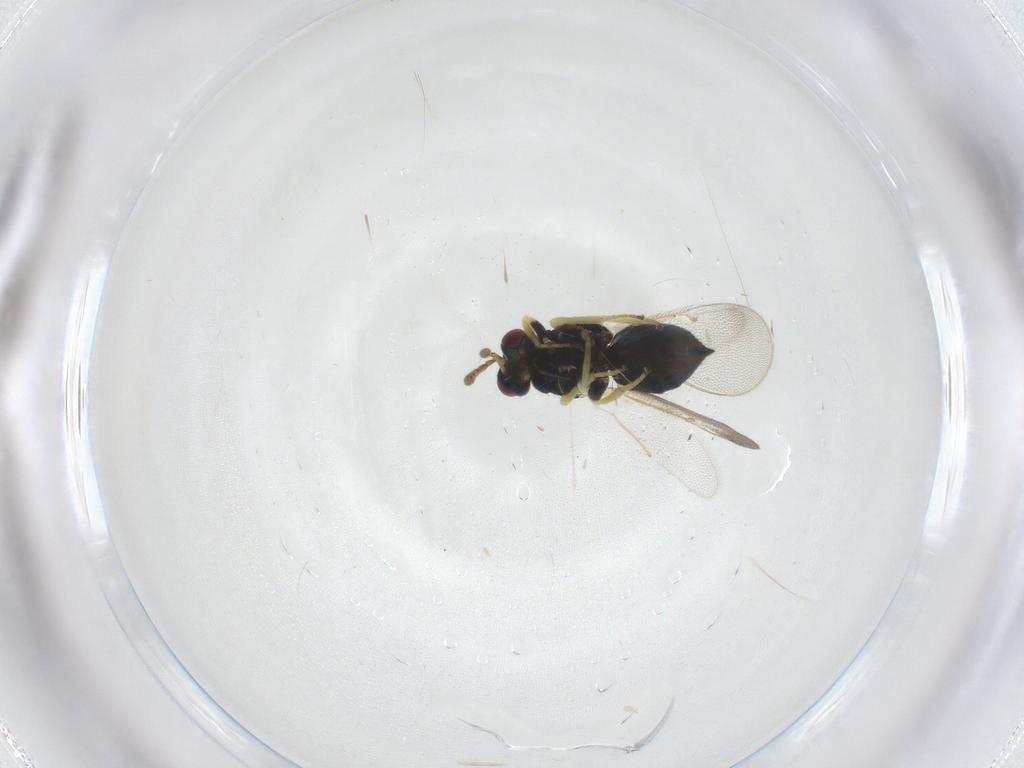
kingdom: Animalia
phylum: Arthropoda
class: Insecta
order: Hymenoptera
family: Eulophidae
